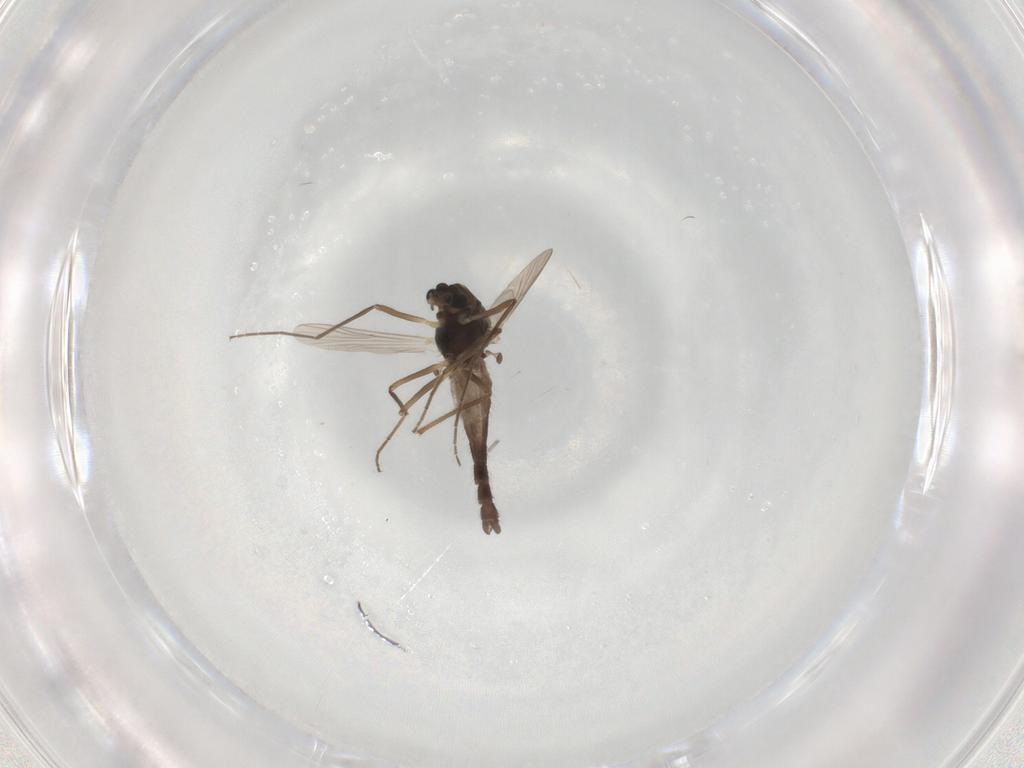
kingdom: Animalia
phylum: Arthropoda
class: Insecta
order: Diptera
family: Chironomidae
